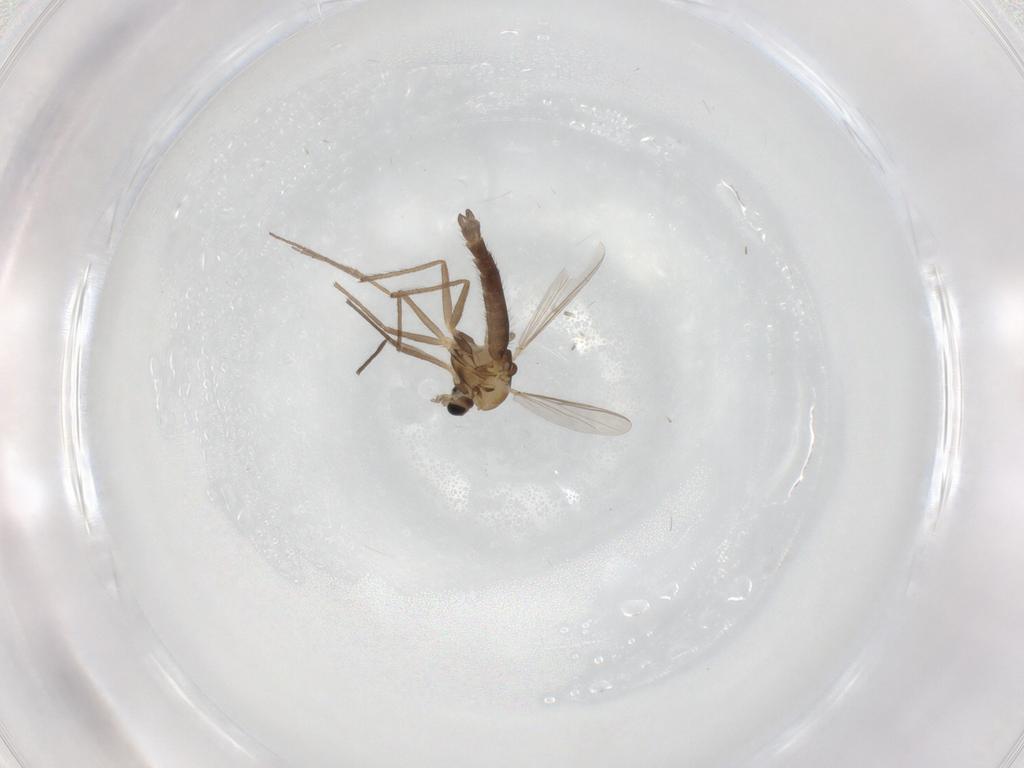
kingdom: Animalia
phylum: Arthropoda
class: Insecta
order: Diptera
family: Chironomidae
